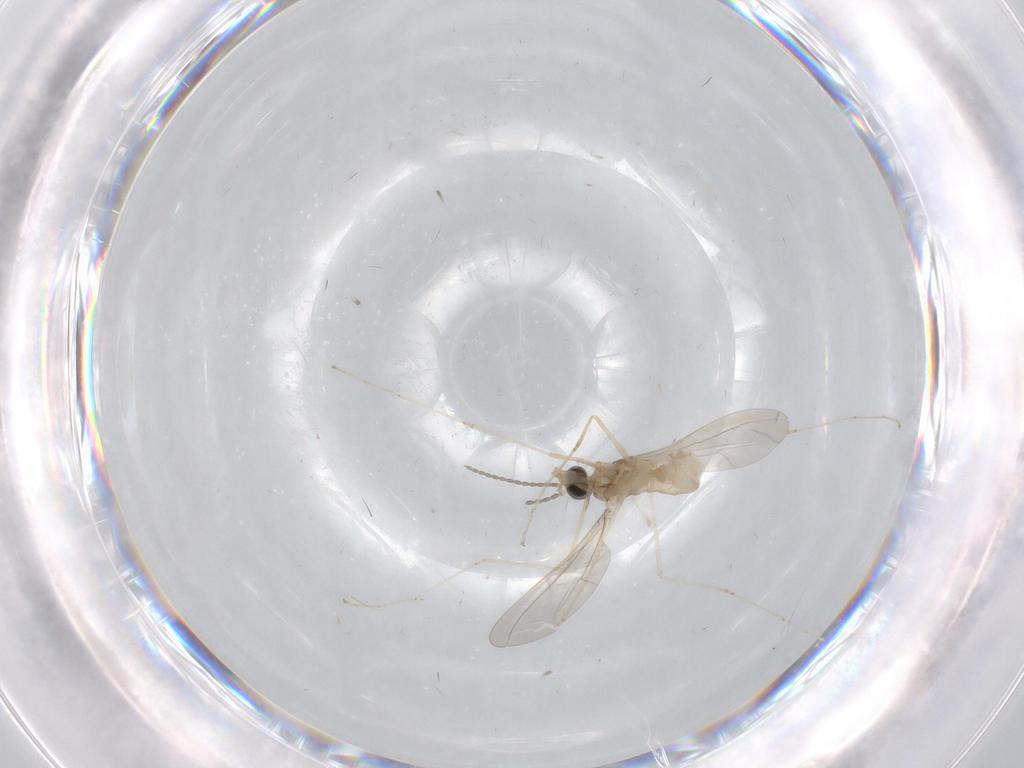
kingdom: Animalia
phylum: Arthropoda
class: Insecta
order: Diptera
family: Cecidomyiidae
